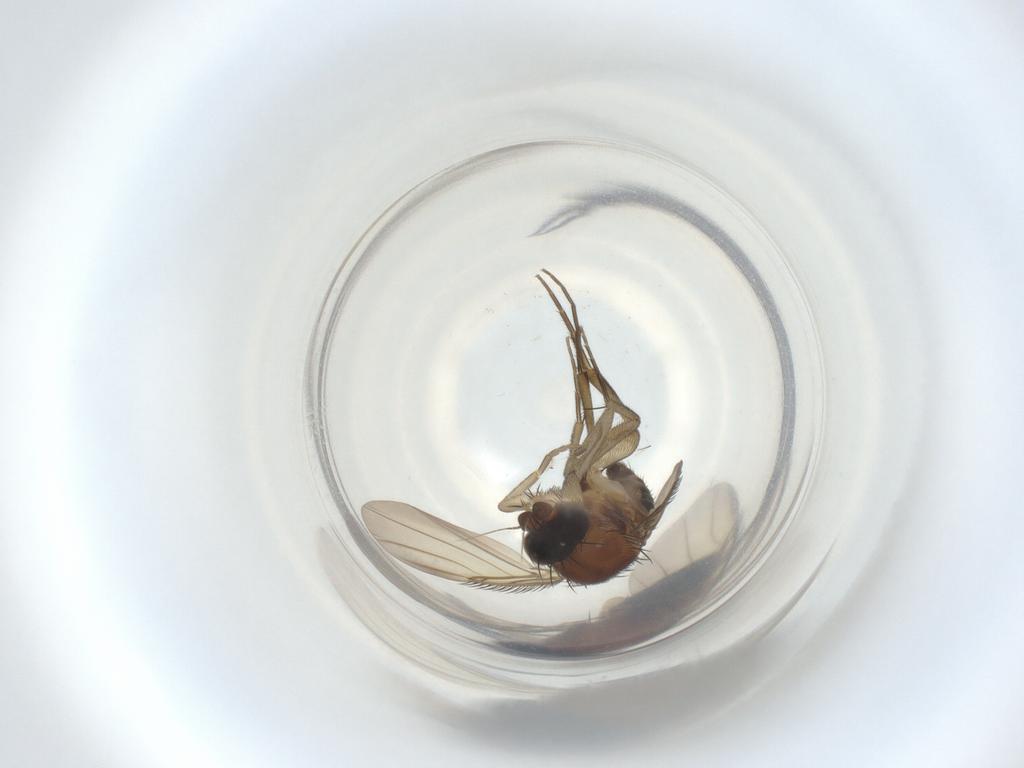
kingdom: Animalia
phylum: Arthropoda
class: Insecta
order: Diptera
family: Phoridae
